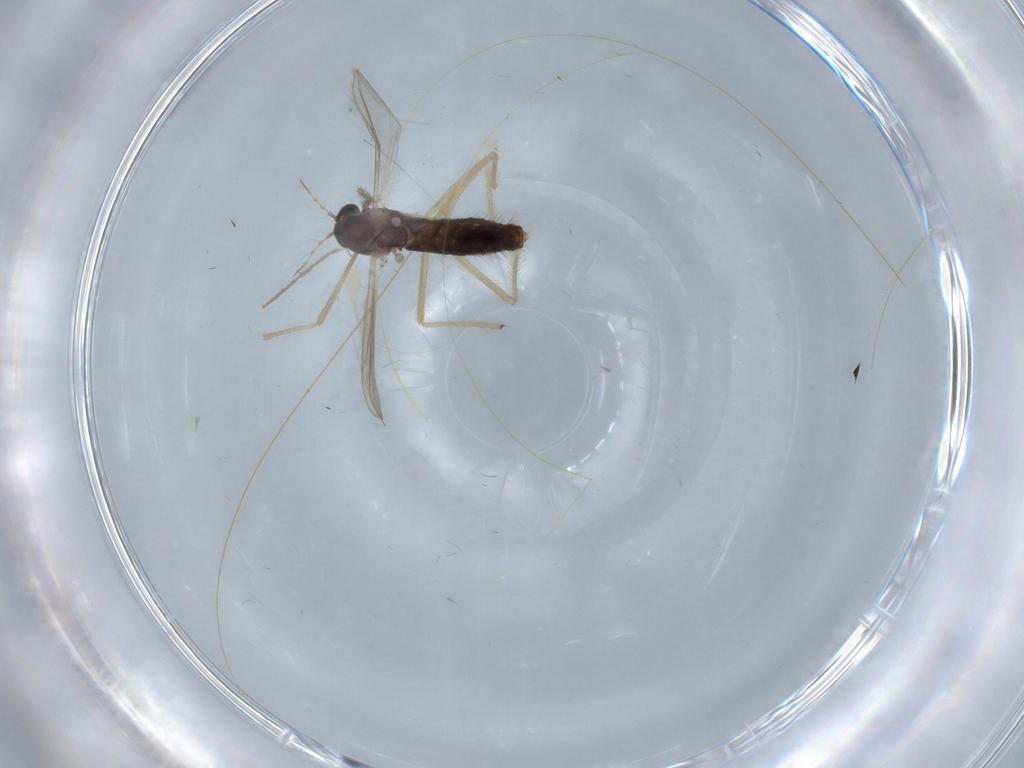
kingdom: Animalia
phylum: Arthropoda
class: Insecta
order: Diptera
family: Chironomidae
